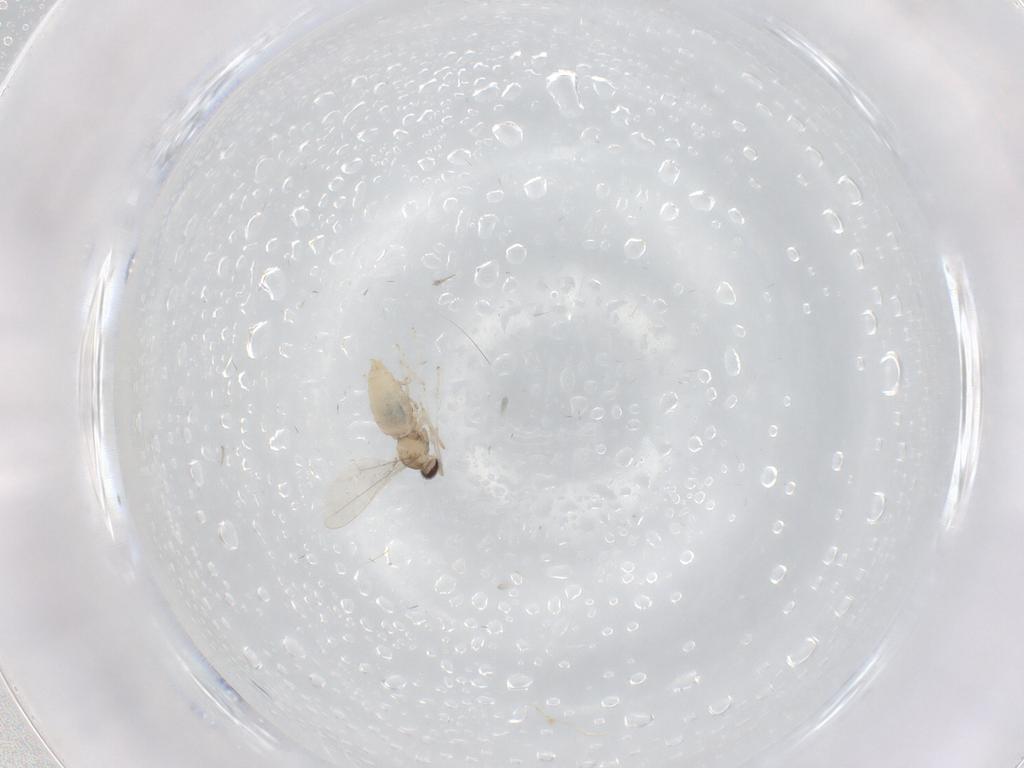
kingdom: Animalia
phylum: Arthropoda
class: Insecta
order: Diptera
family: Cecidomyiidae
